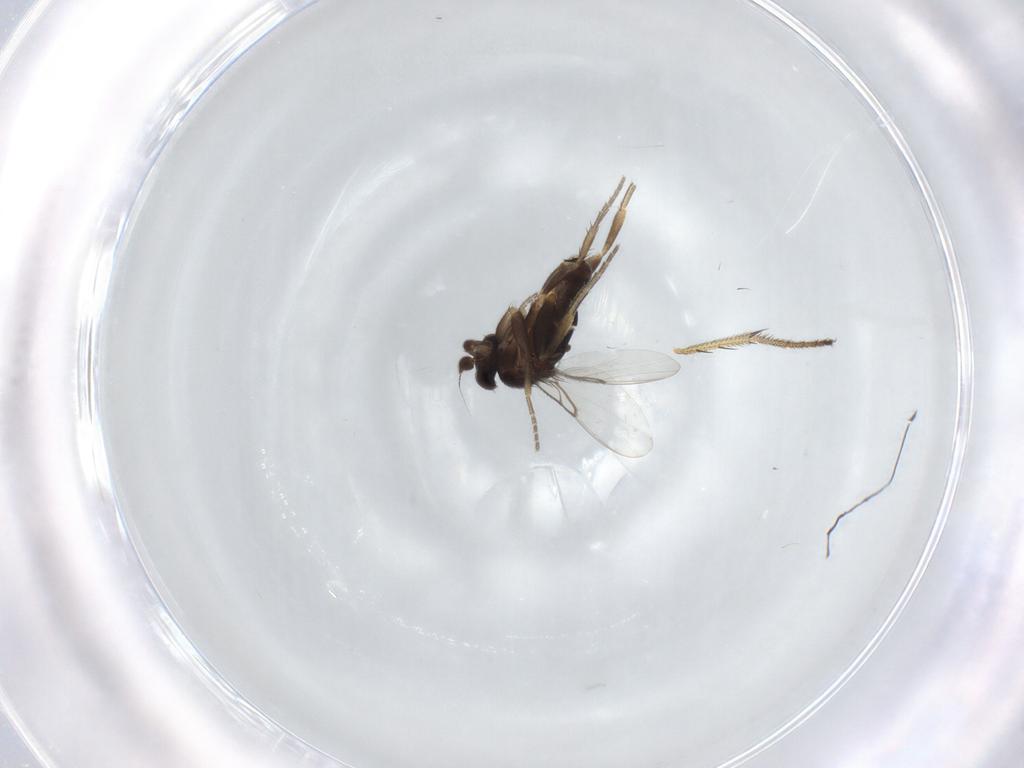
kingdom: Animalia
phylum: Arthropoda
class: Insecta
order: Diptera
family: Phoridae
